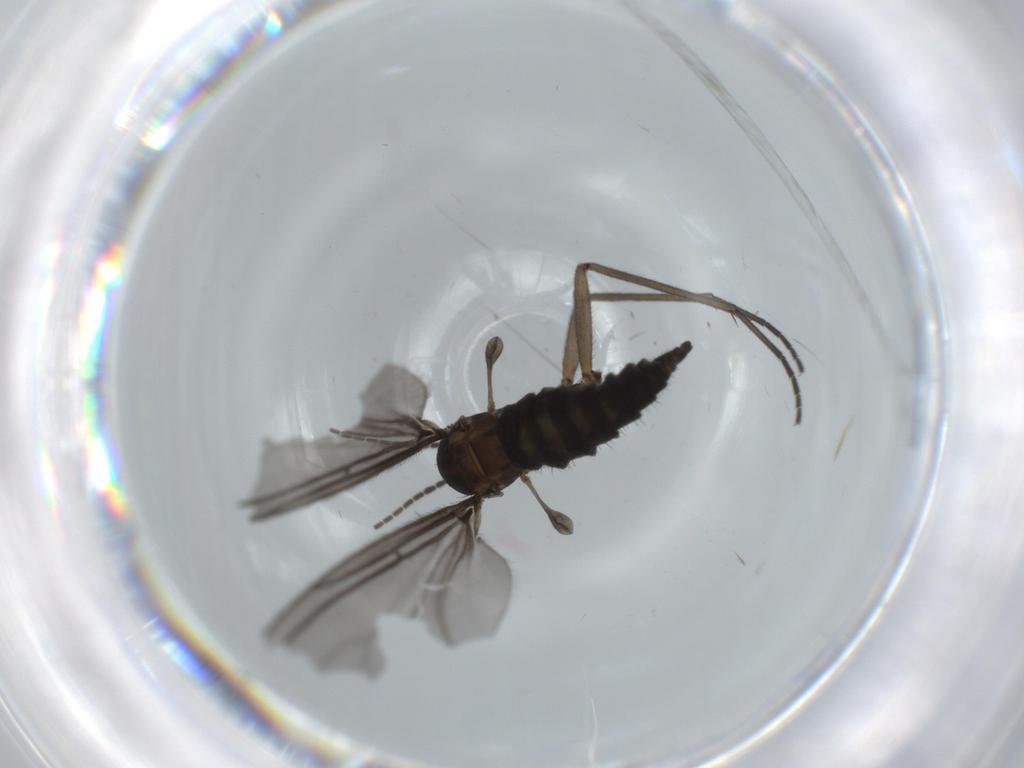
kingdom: Animalia
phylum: Arthropoda
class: Insecta
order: Diptera
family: Sciaridae
